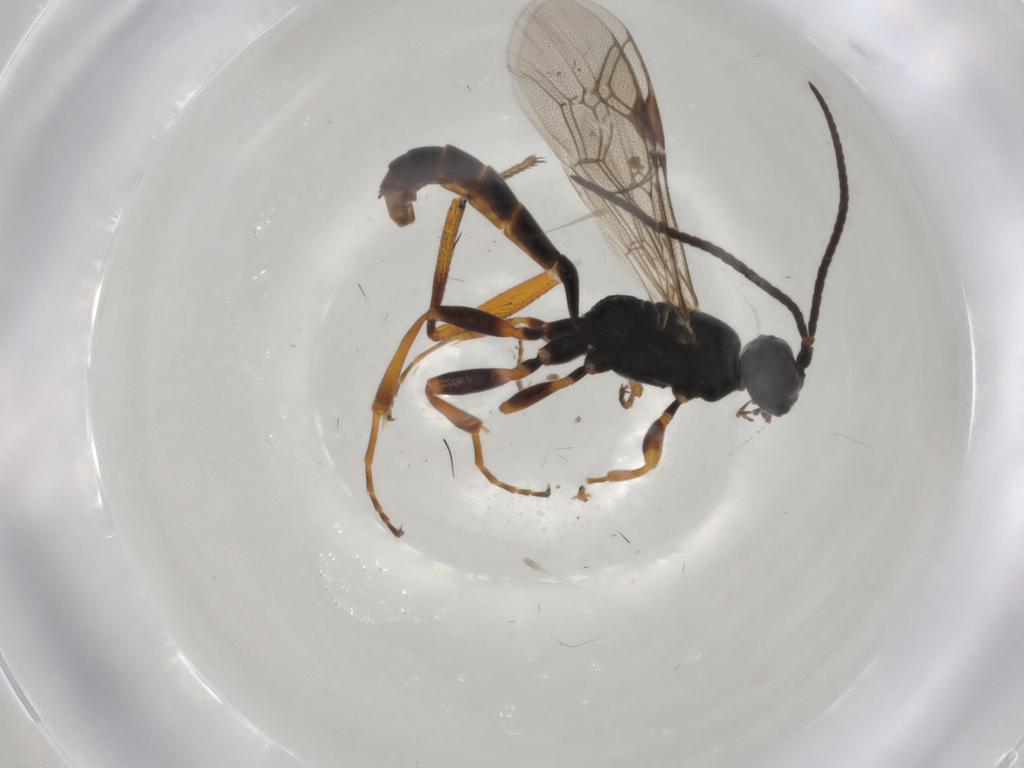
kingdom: Animalia
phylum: Arthropoda
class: Insecta
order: Hymenoptera
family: Ichneumonidae
